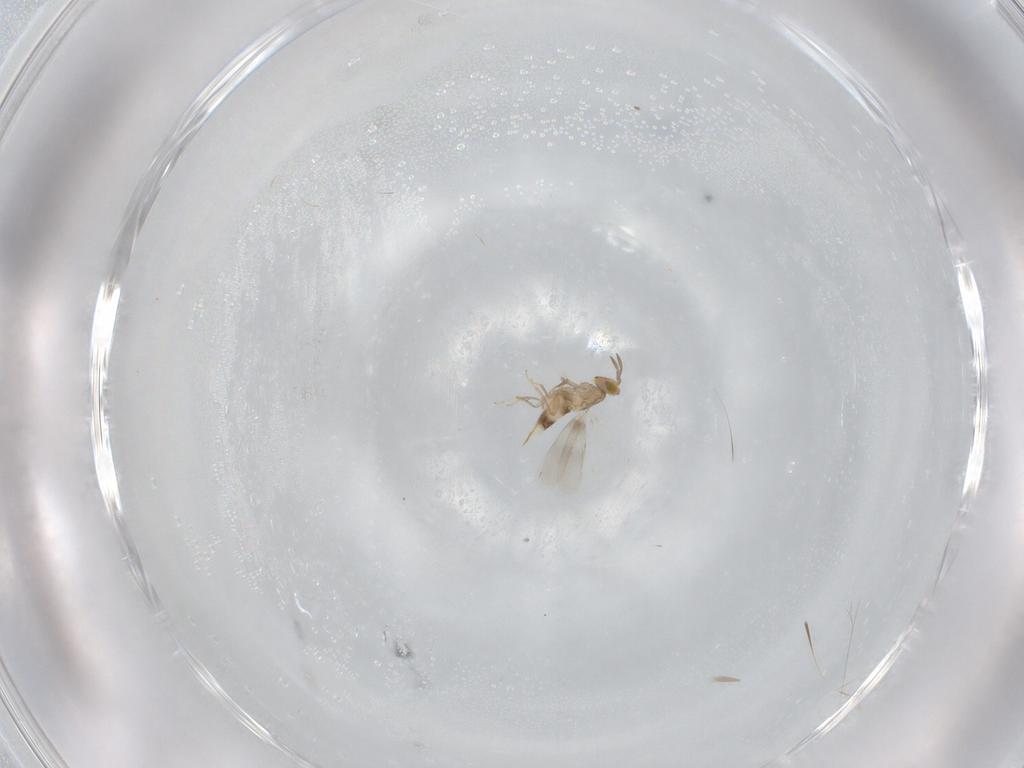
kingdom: Animalia
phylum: Arthropoda
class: Insecta
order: Hymenoptera
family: Aphelinidae
